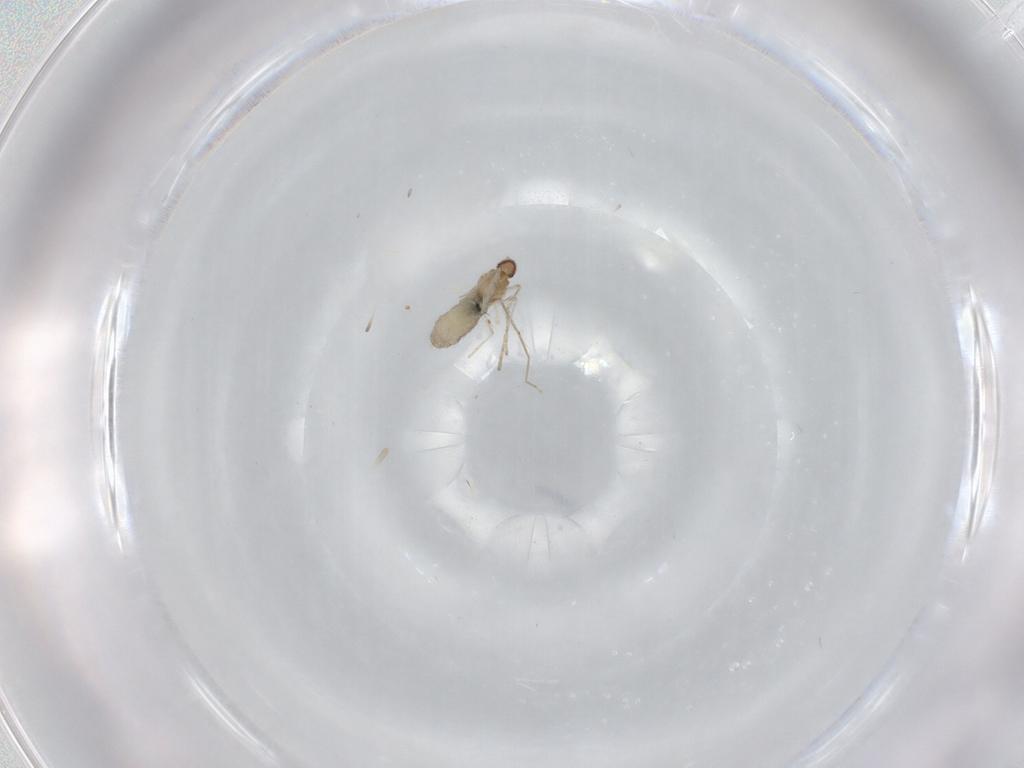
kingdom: Animalia
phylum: Arthropoda
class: Insecta
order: Diptera
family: Cecidomyiidae
